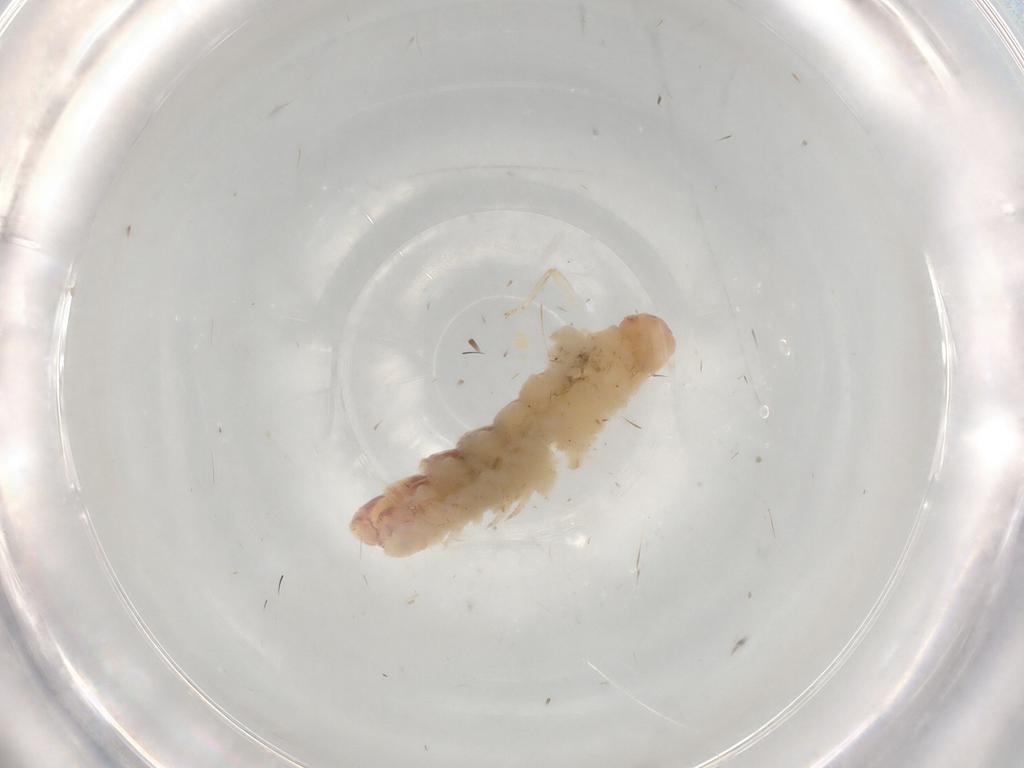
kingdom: Animalia
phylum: Arthropoda
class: Diplopoda
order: Polyxenida
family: Polyxenidae
